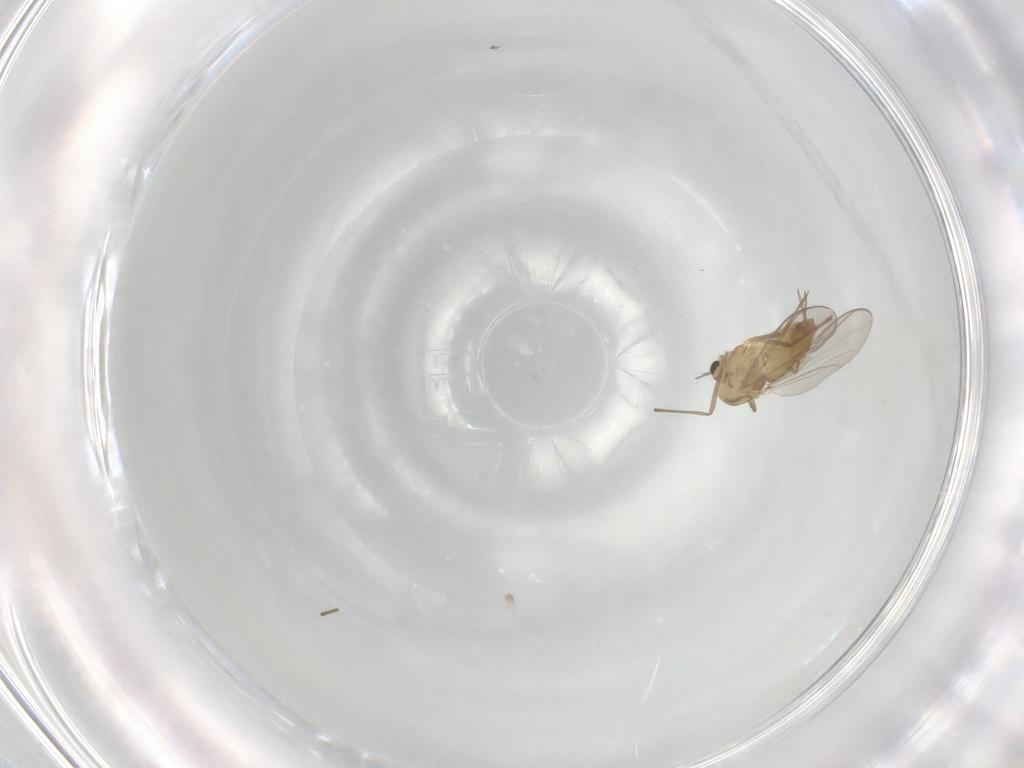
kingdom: Animalia
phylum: Arthropoda
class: Insecta
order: Diptera
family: Chironomidae
